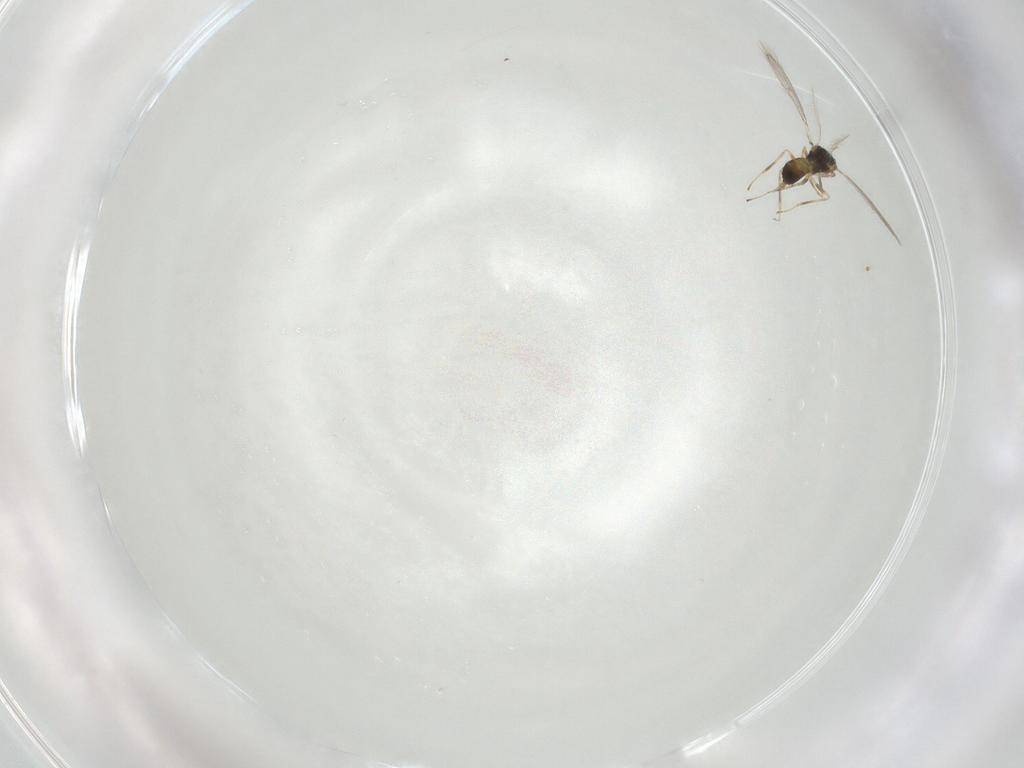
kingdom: Animalia
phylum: Arthropoda
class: Insecta
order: Hymenoptera
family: Eulophidae
